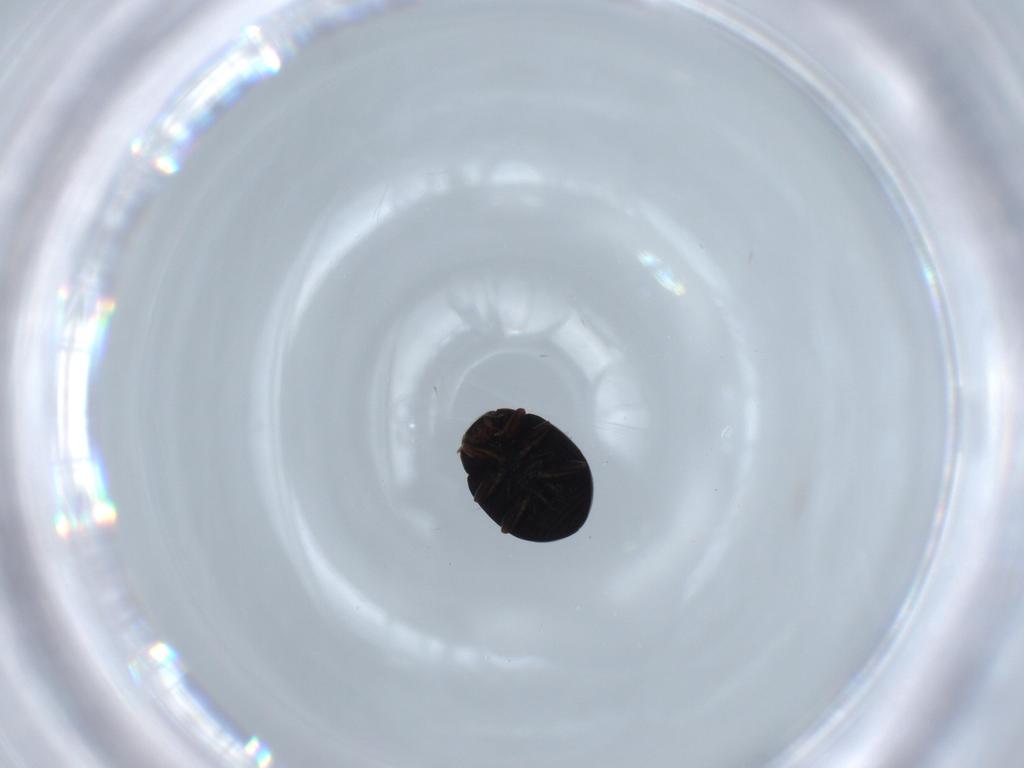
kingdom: Animalia
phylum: Arthropoda
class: Insecta
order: Coleoptera
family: Coccinellidae
